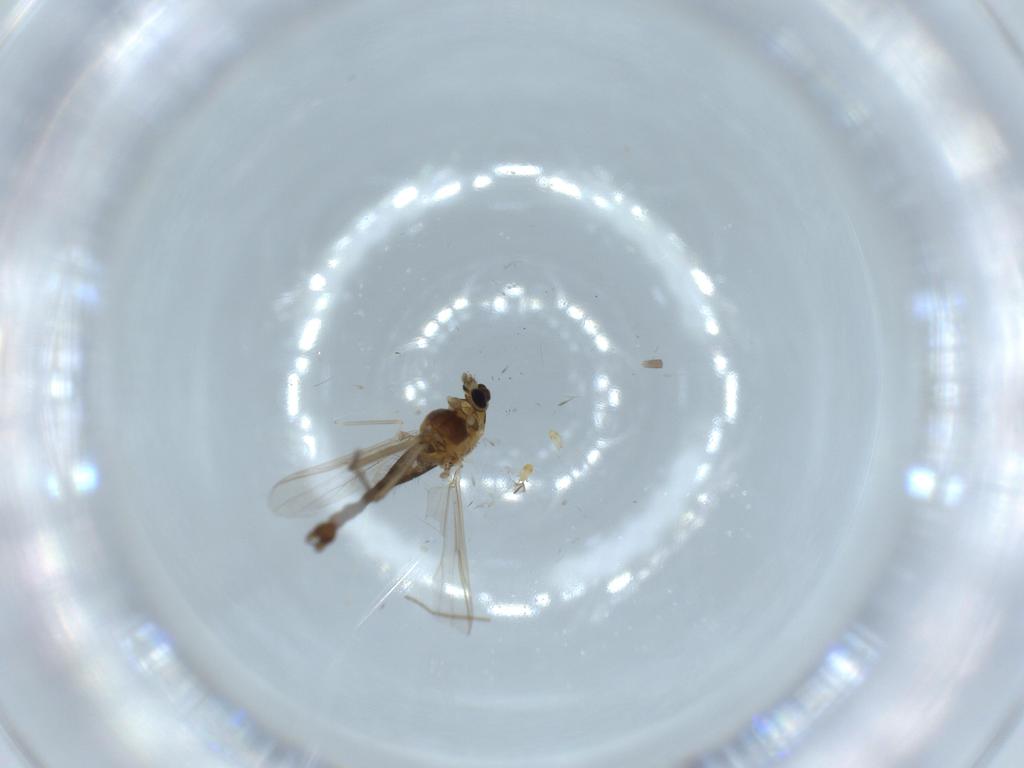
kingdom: Animalia
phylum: Arthropoda
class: Insecta
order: Diptera
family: Chironomidae
